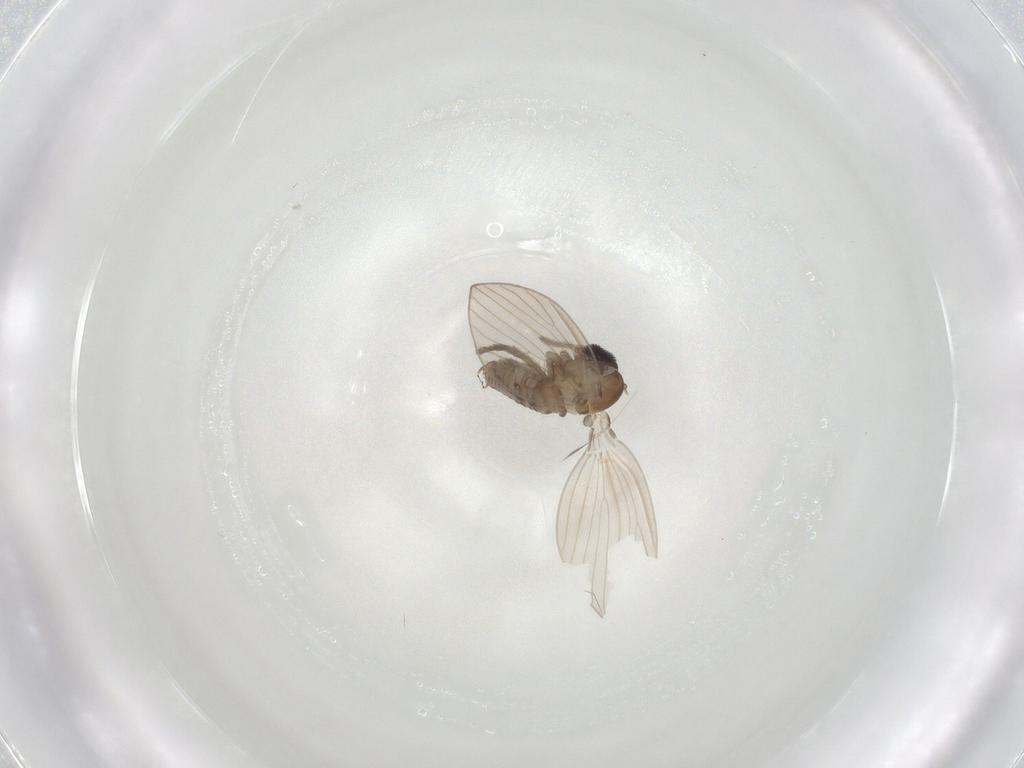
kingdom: Animalia
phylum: Arthropoda
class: Insecta
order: Diptera
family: Psychodidae
